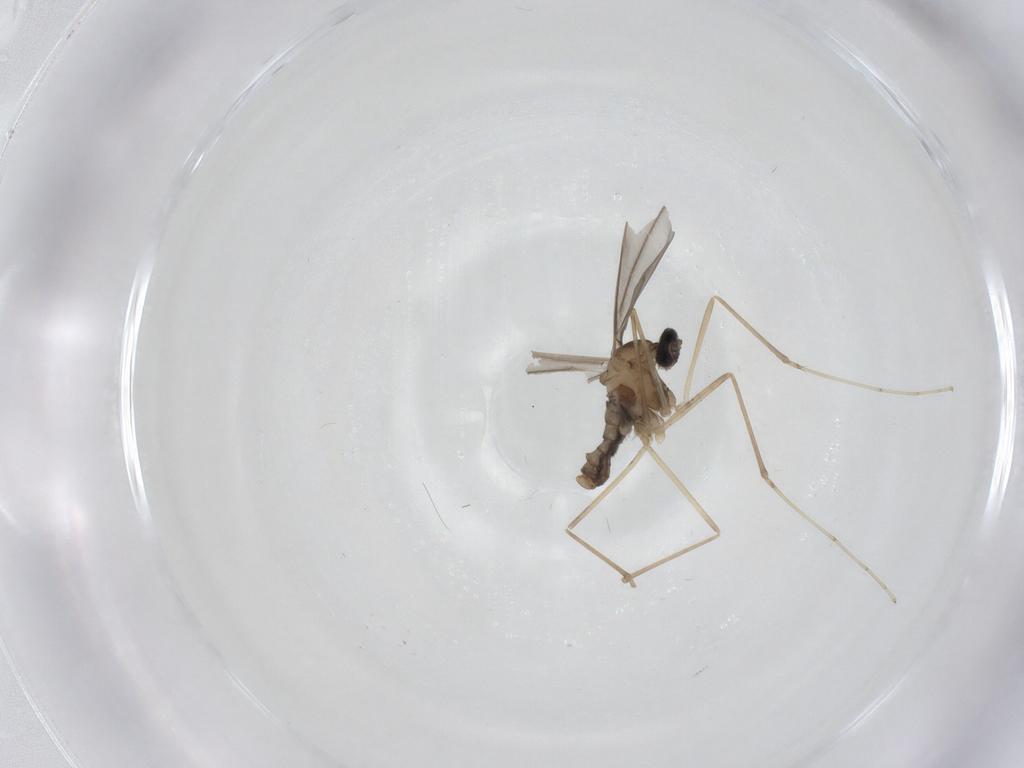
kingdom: Animalia
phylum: Arthropoda
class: Insecta
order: Diptera
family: Cecidomyiidae
